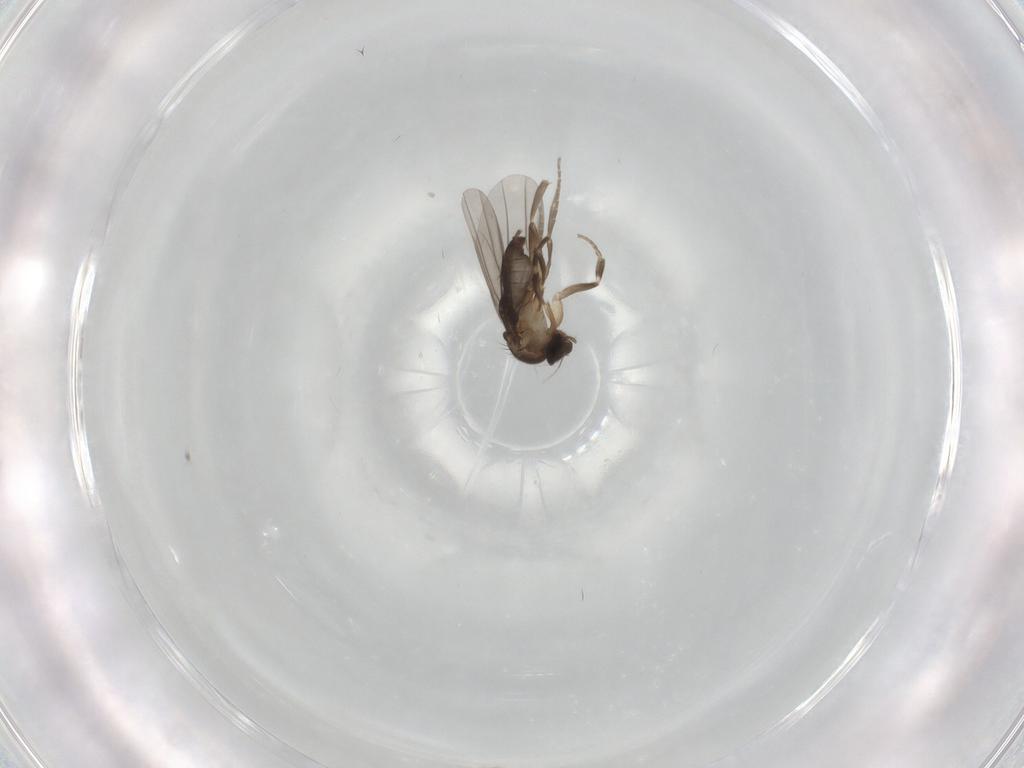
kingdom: Animalia
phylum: Arthropoda
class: Insecta
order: Diptera
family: Phoridae
